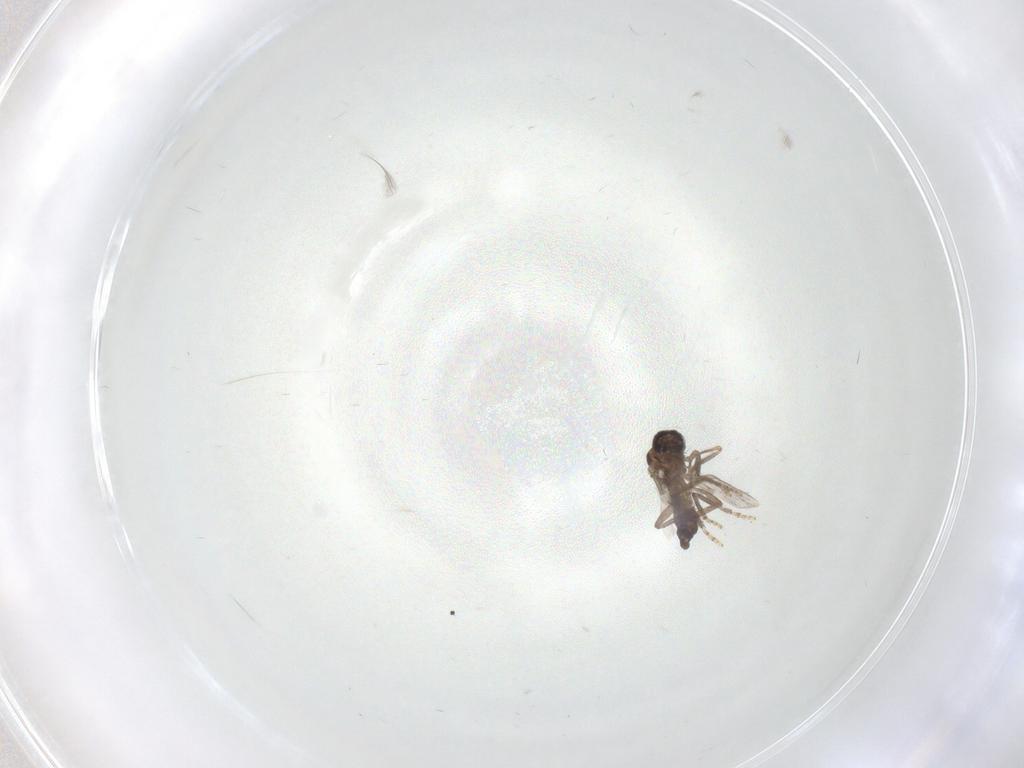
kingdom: Animalia
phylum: Arthropoda
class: Insecta
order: Diptera
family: Ceratopogonidae
